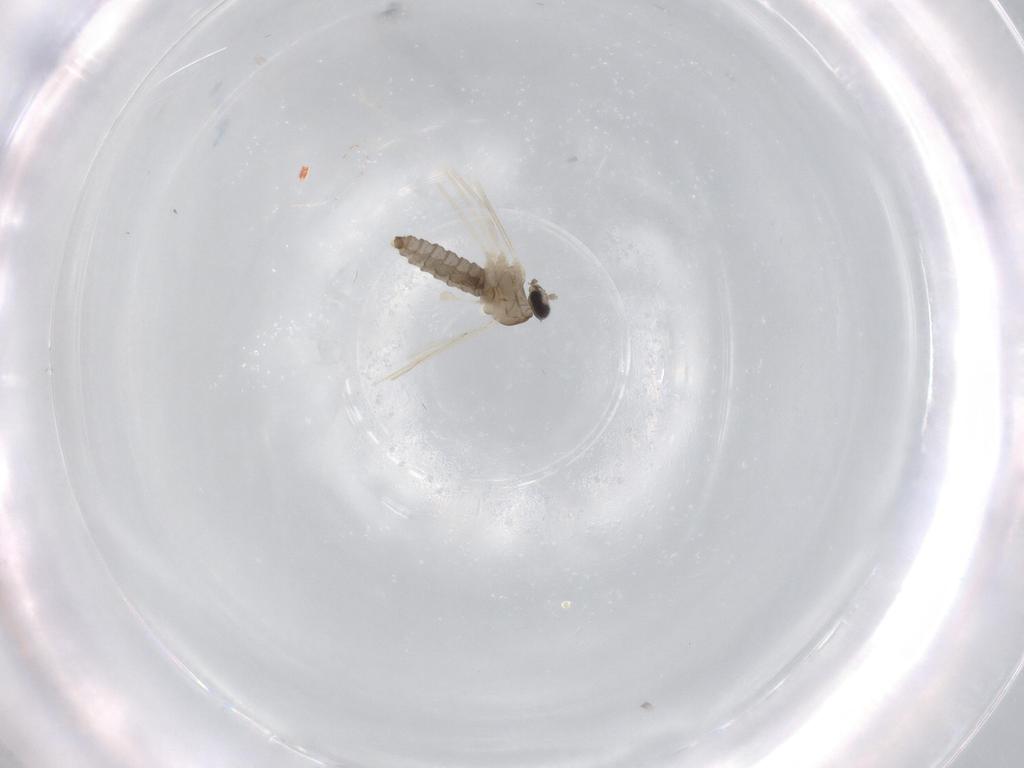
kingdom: Animalia
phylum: Arthropoda
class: Insecta
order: Diptera
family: Cecidomyiidae
